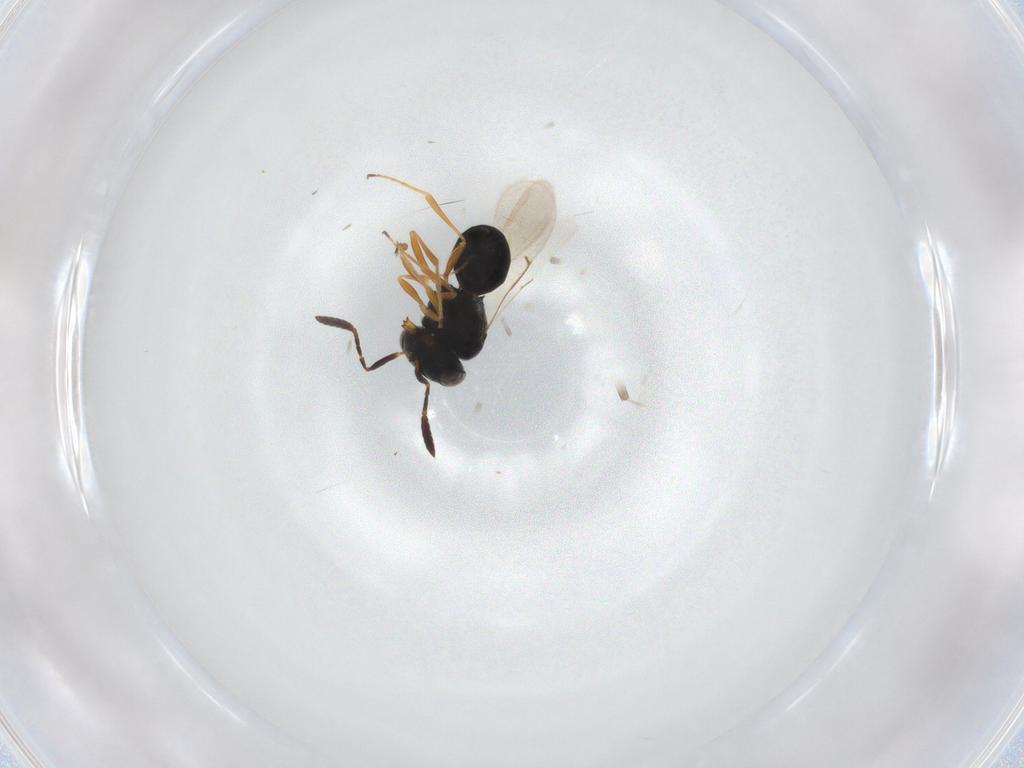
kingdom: Animalia
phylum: Arthropoda
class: Insecta
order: Hymenoptera
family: Scelionidae
